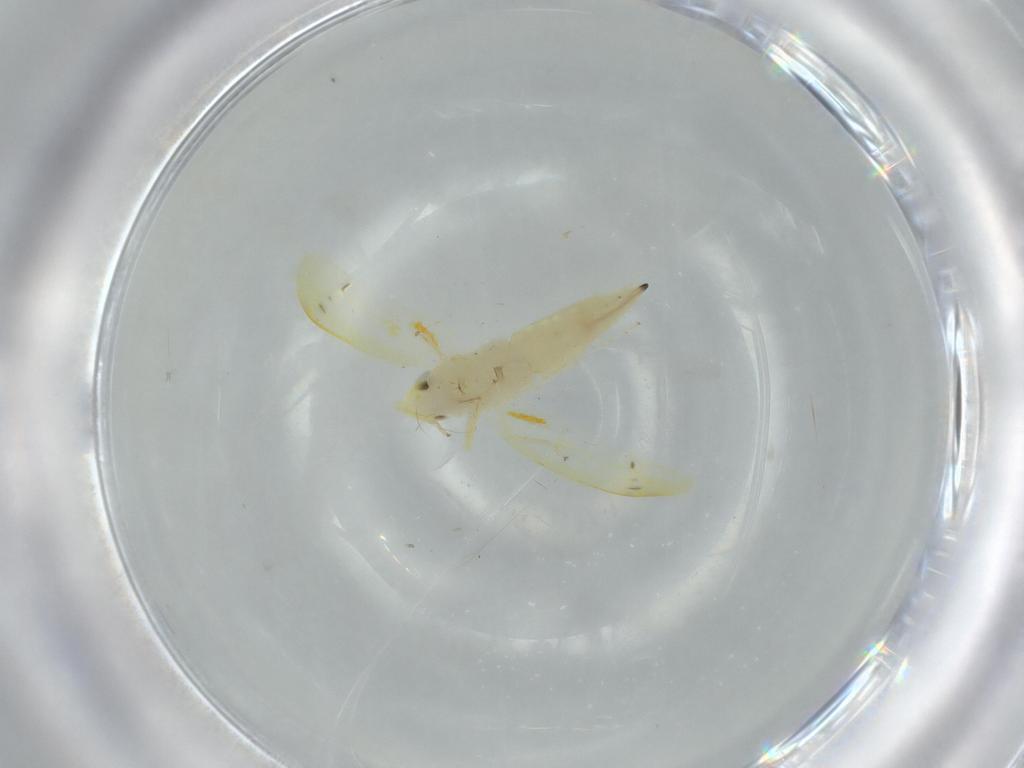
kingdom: Animalia
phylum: Arthropoda
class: Insecta
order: Hemiptera
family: Cicadellidae
